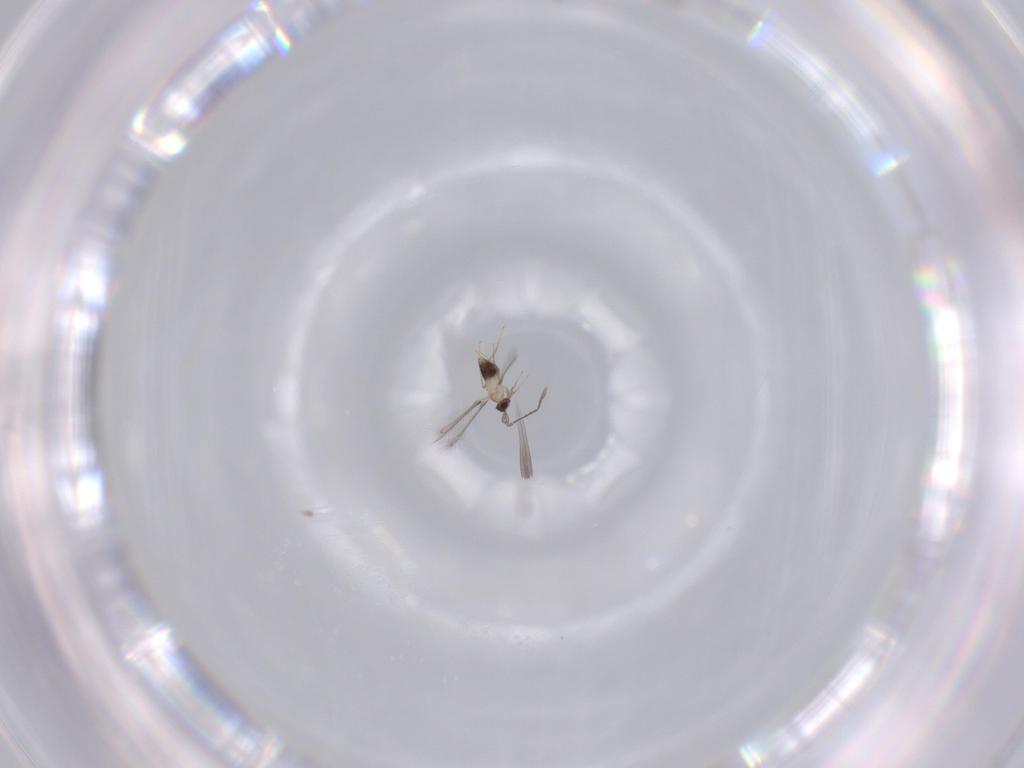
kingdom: Animalia
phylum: Arthropoda
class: Insecta
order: Hymenoptera
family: Mymaridae
